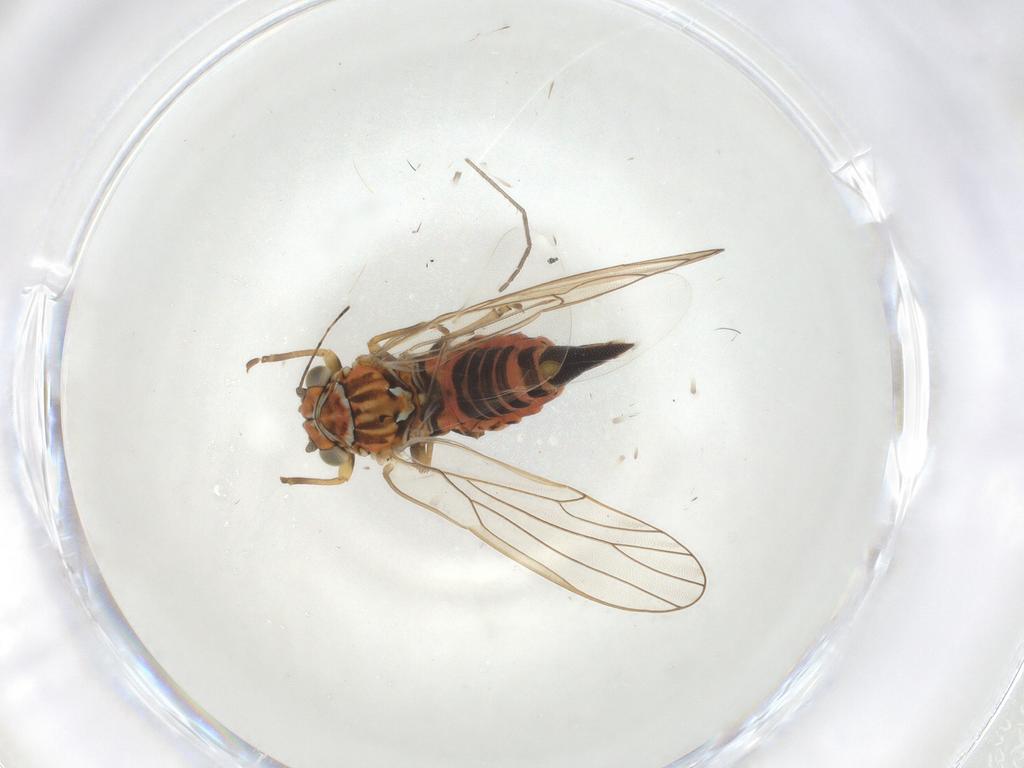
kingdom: Animalia
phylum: Arthropoda
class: Insecta
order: Hemiptera
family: Psyllidae
